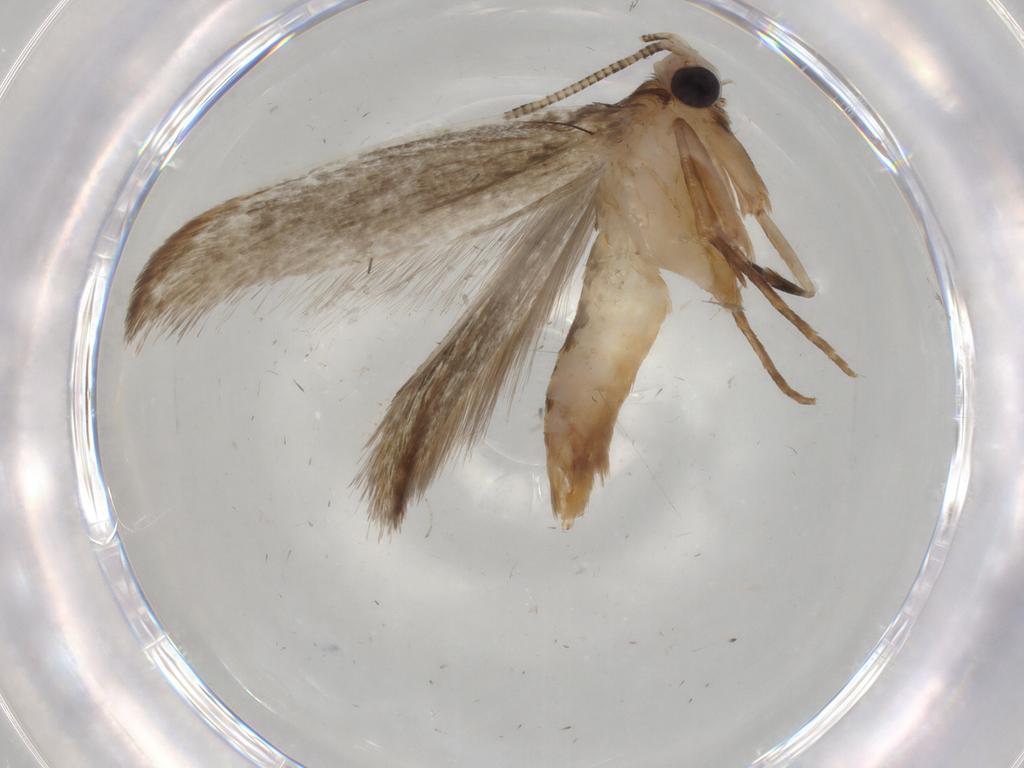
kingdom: Animalia
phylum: Arthropoda
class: Insecta
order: Lepidoptera
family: Tineidae
